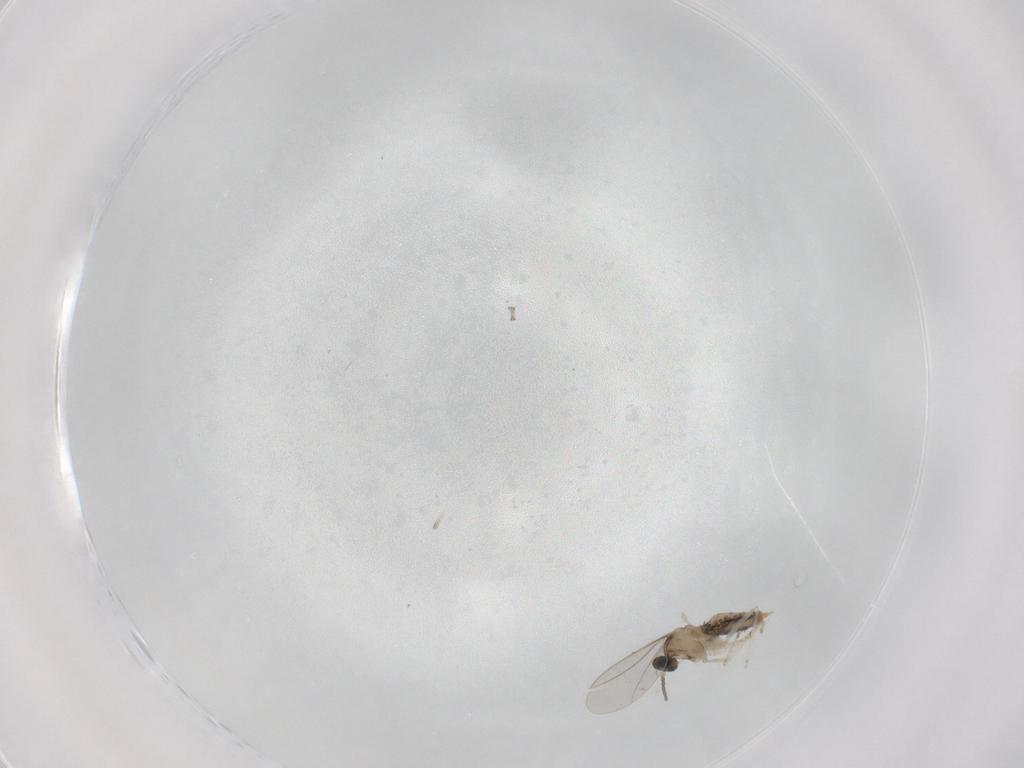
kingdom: Animalia
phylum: Arthropoda
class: Insecta
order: Diptera
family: Cecidomyiidae
